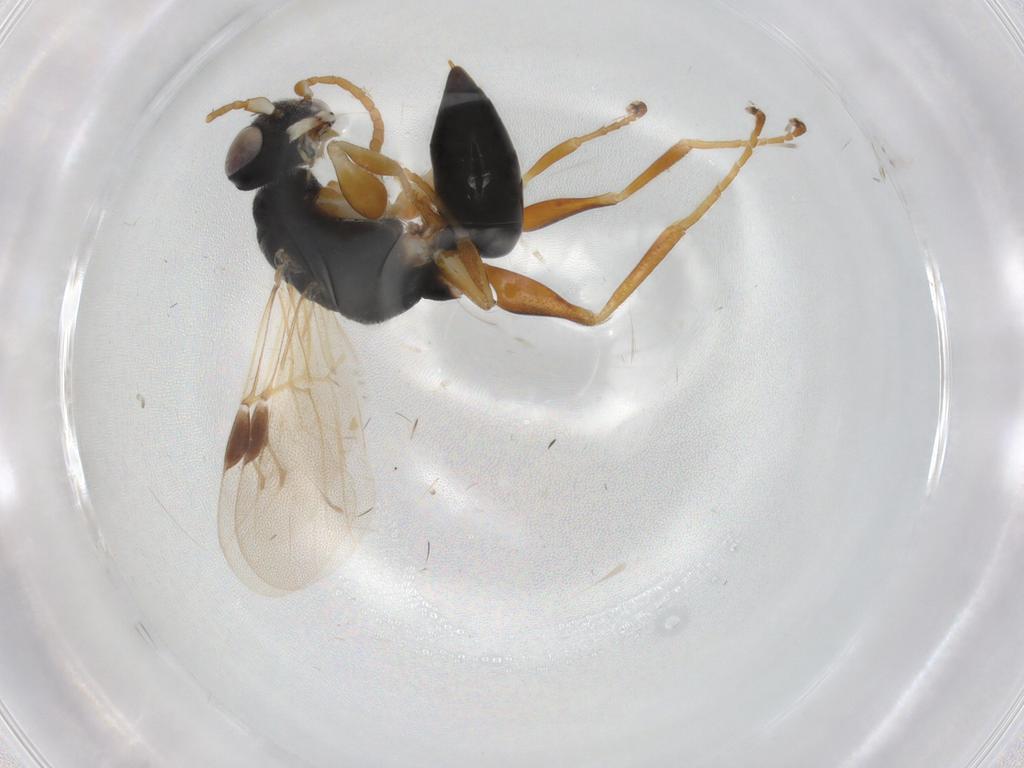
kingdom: Animalia
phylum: Arthropoda
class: Insecta
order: Hymenoptera
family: Dryinidae
